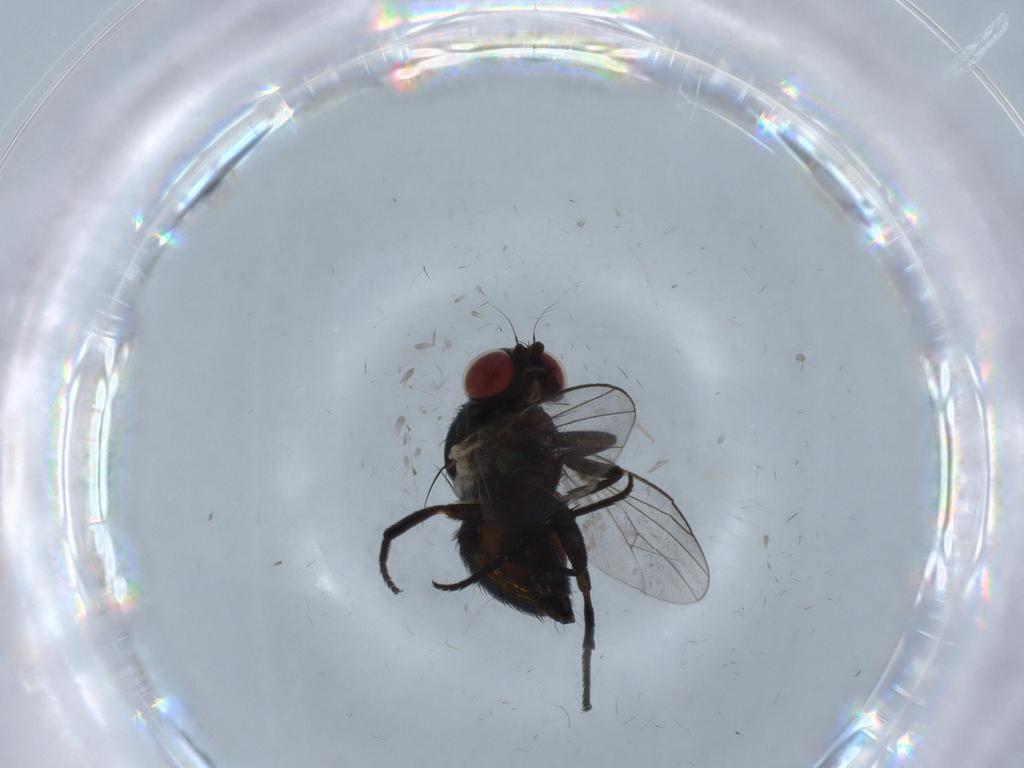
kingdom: Animalia
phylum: Arthropoda
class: Insecta
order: Diptera
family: Agromyzidae
